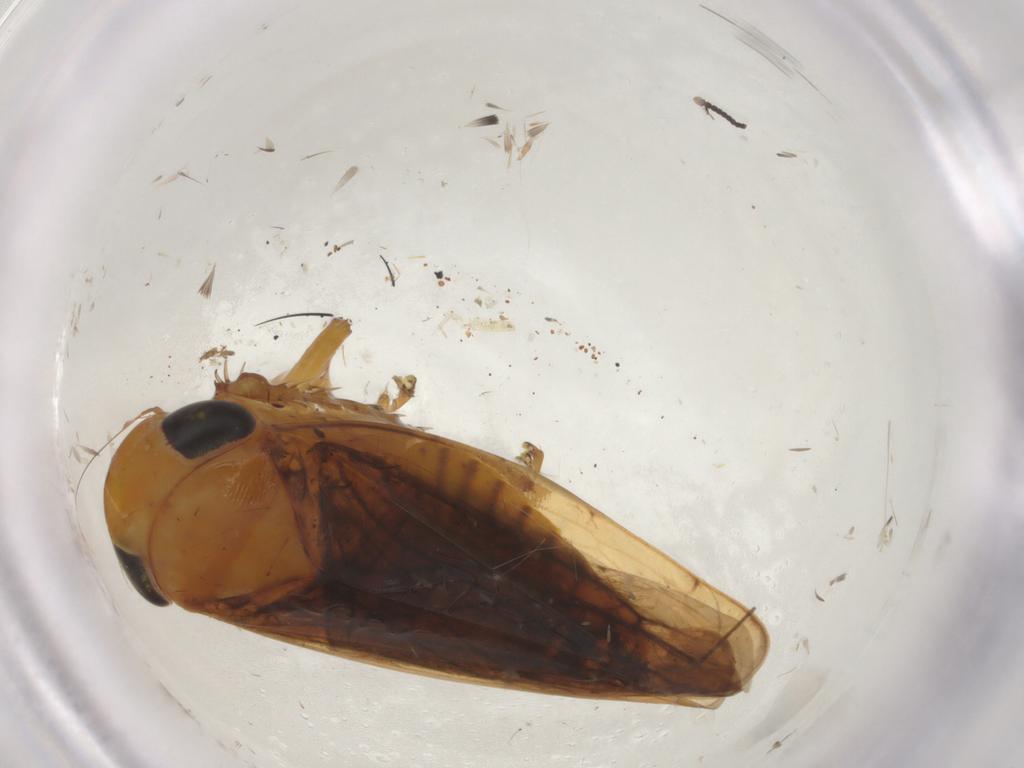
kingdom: Animalia
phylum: Arthropoda
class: Insecta
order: Hemiptera
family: Cicadellidae
